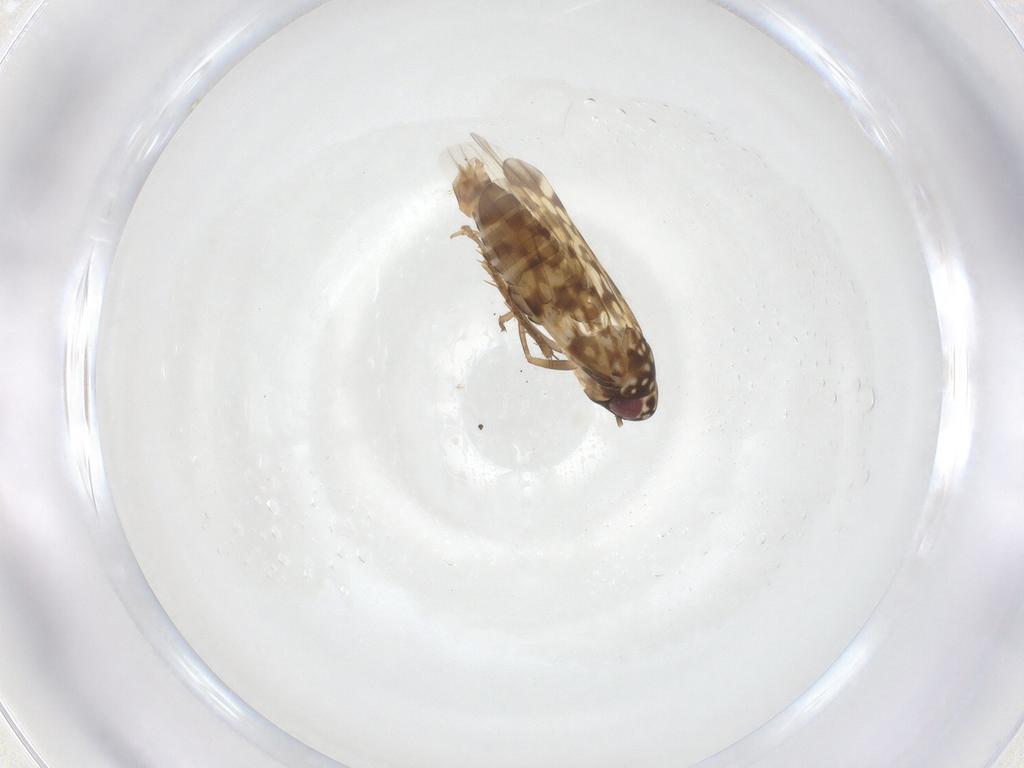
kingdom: Animalia
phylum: Arthropoda
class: Insecta
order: Hemiptera
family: Cicadellidae
